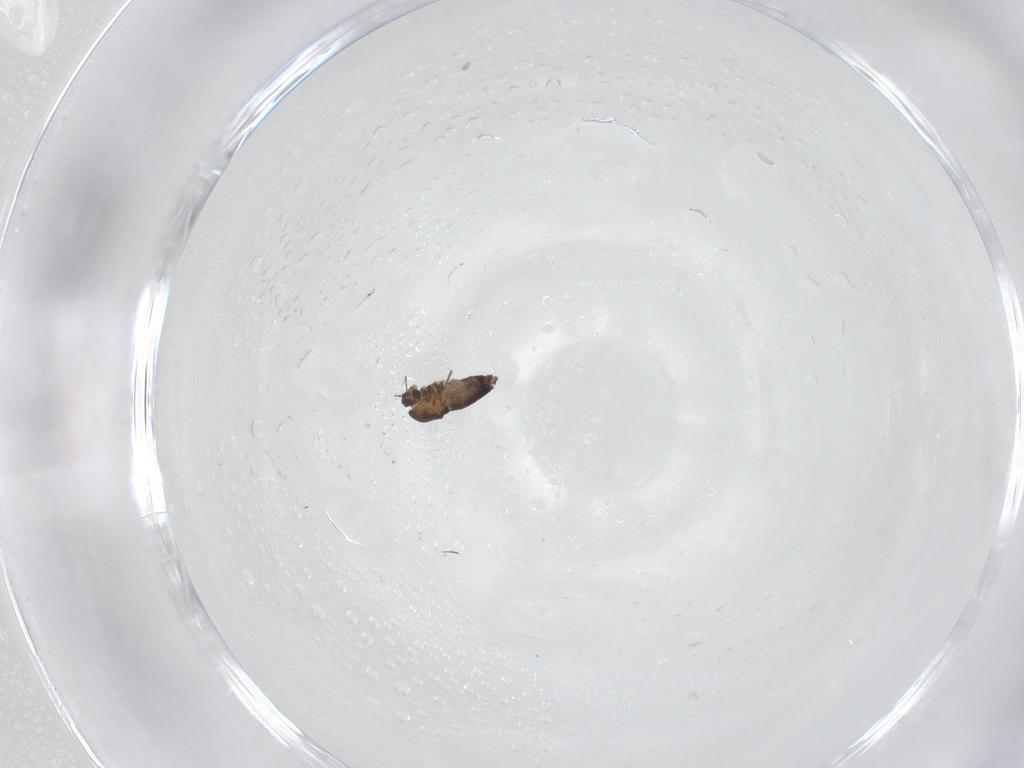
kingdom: Animalia
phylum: Arthropoda
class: Insecta
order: Diptera
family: Chironomidae
